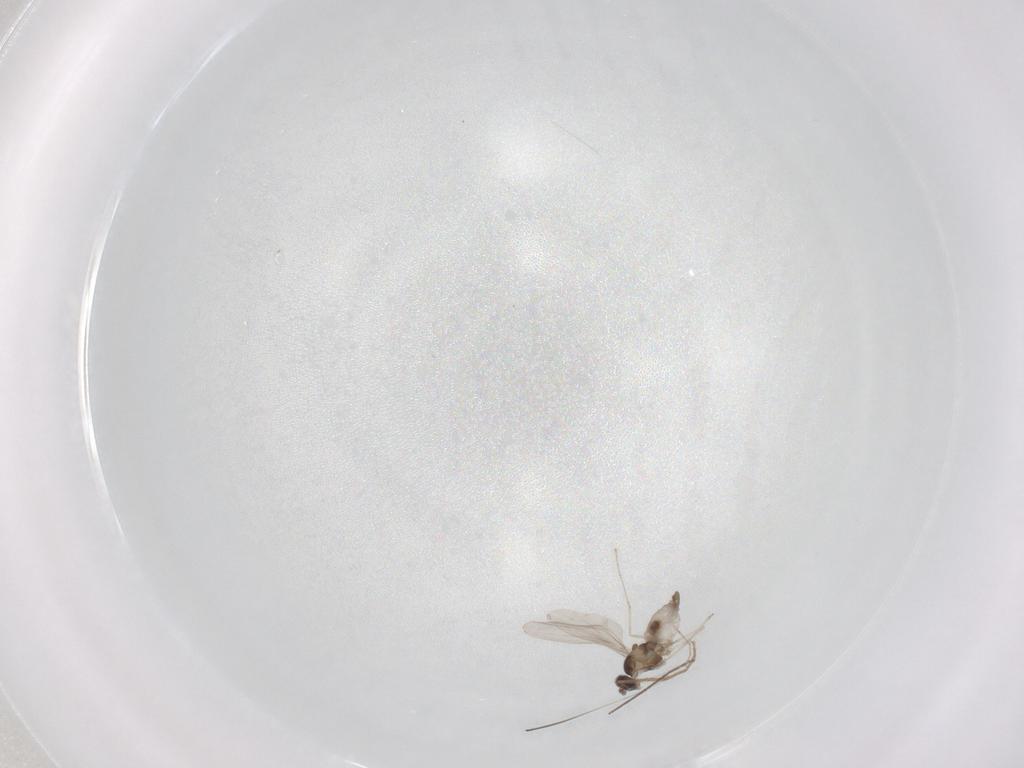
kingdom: Animalia
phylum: Arthropoda
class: Insecta
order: Diptera
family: Cecidomyiidae
